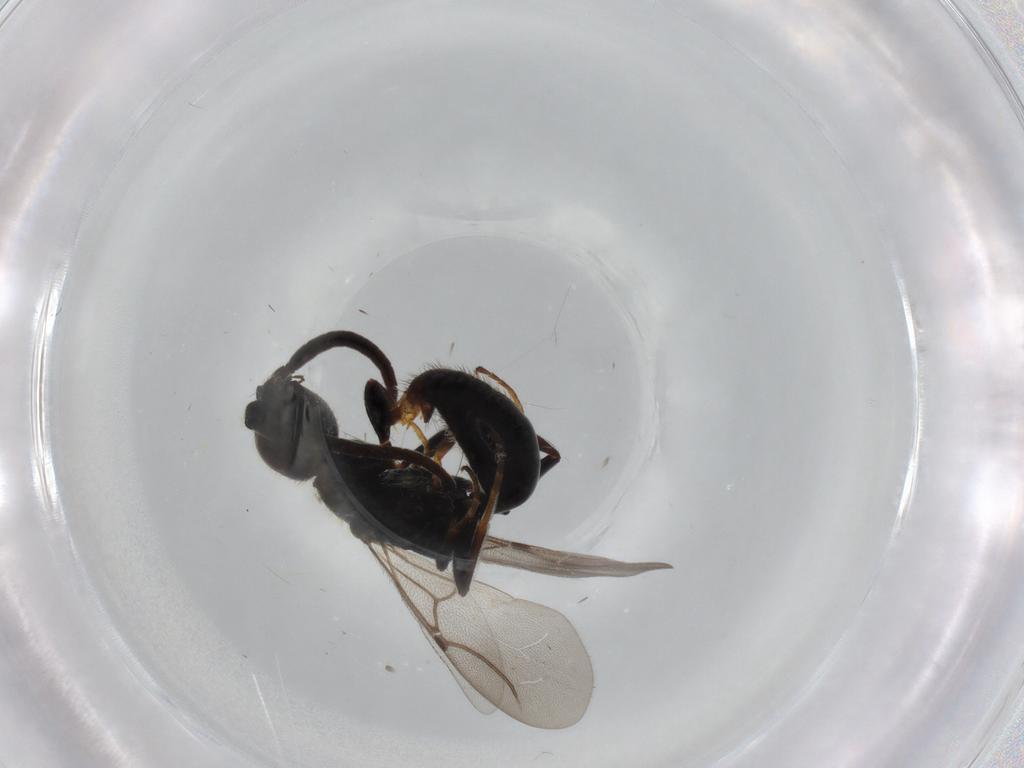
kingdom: Animalia
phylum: Arthropoda
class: Insecta
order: Hymenoptera
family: Bethylidae
